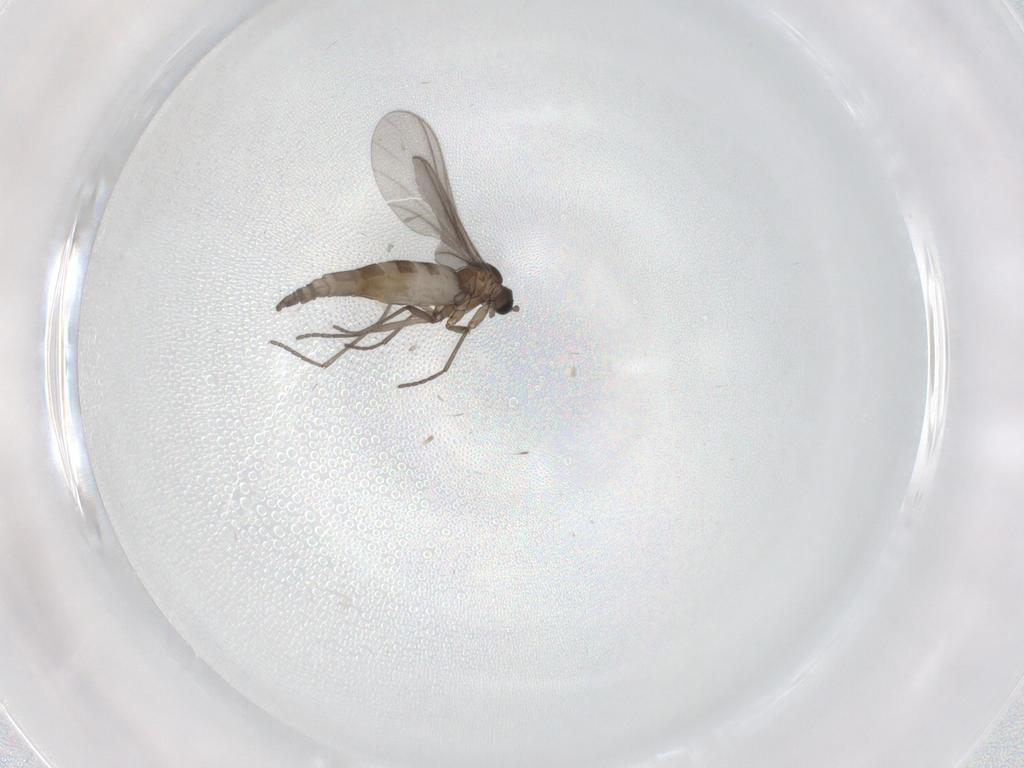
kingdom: Animalia
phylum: Arthropoda
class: Insecta
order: Diptera
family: Sciaridae
